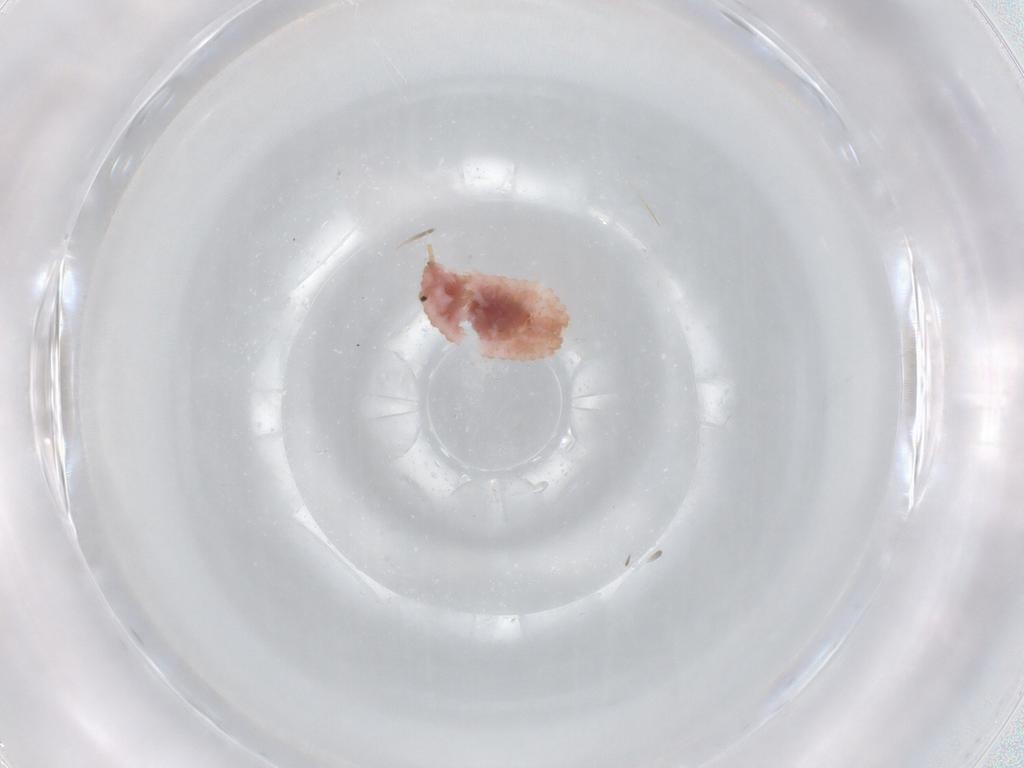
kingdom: Animalia
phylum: Arthropoda
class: Insecta
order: Hemiptera
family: Coccoidea_incertae_sedis
